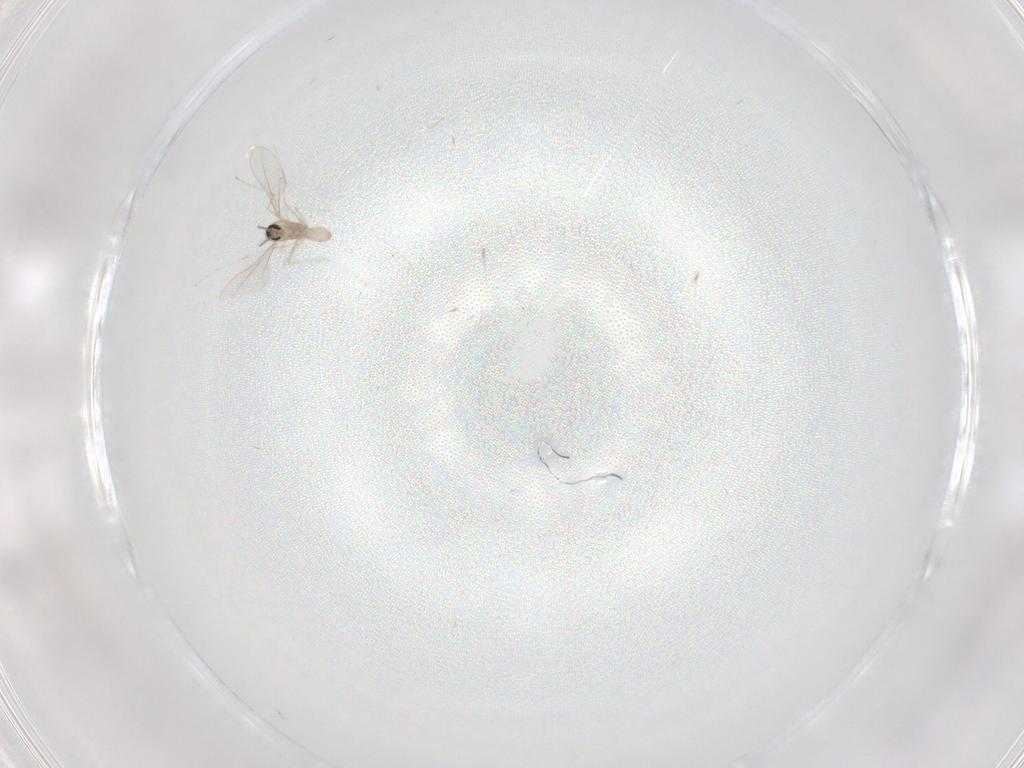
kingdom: Animalia
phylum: Arthropoda
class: Insecta
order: Diptera
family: Cecidomyiidae
